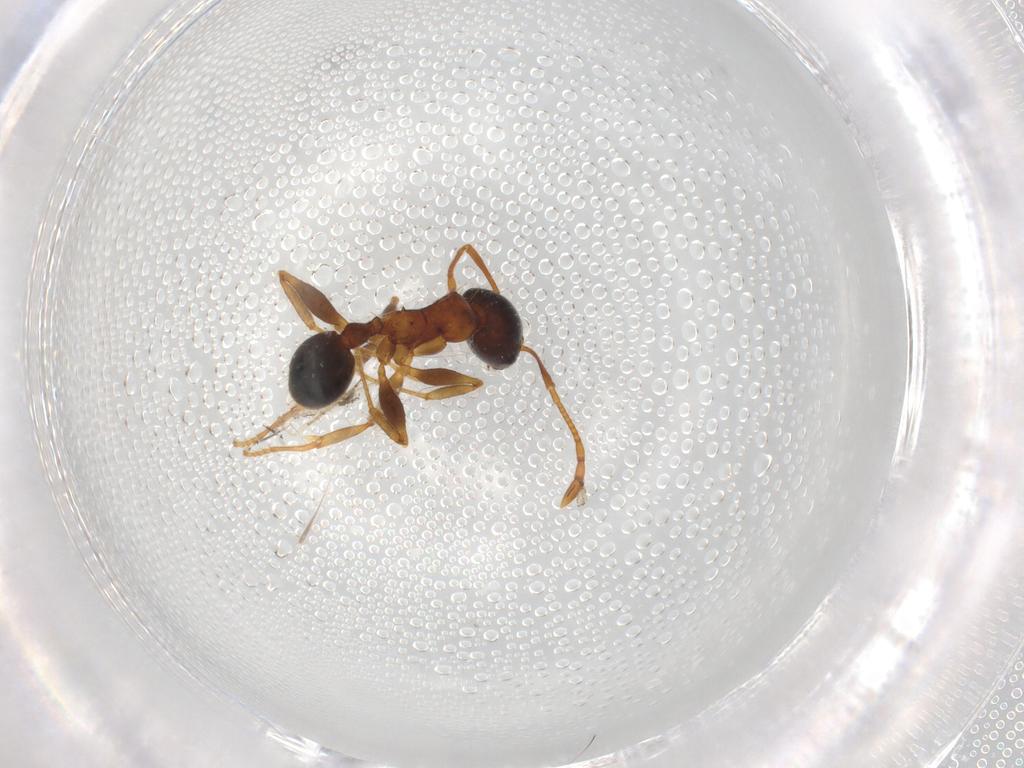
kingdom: Animalia
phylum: Arthropoda
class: Insecta
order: Hymenoptera
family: Formicidae
